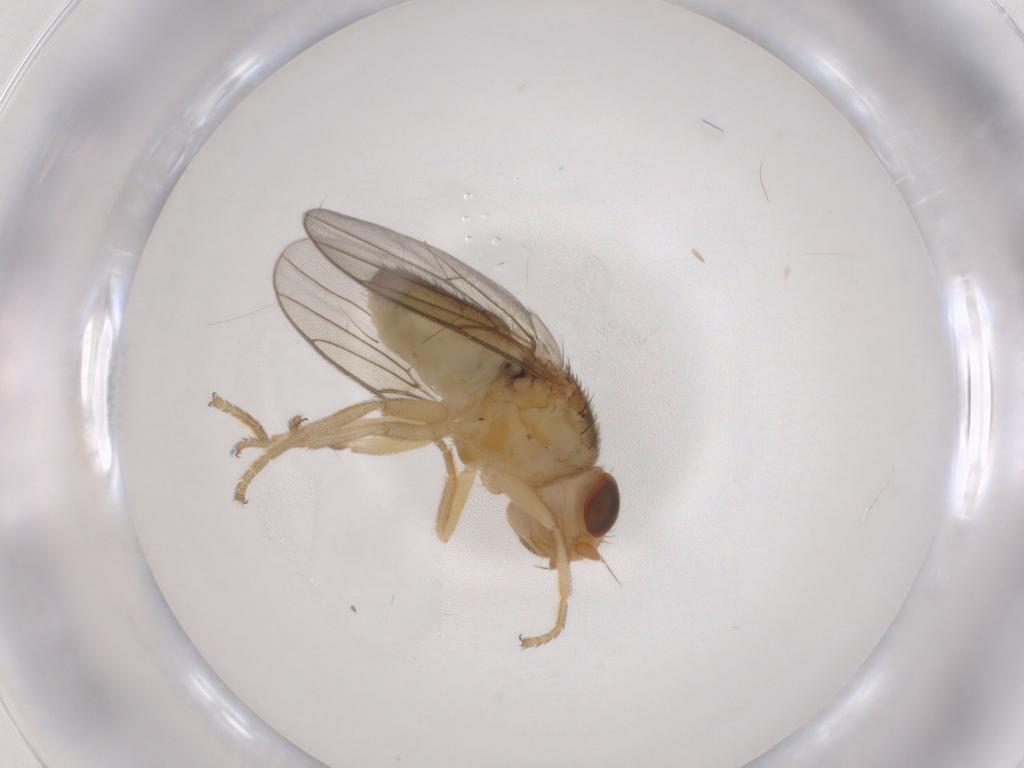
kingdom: Animalia
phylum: Arthropoda
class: Insecta
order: Diptera
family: Chloropidae
